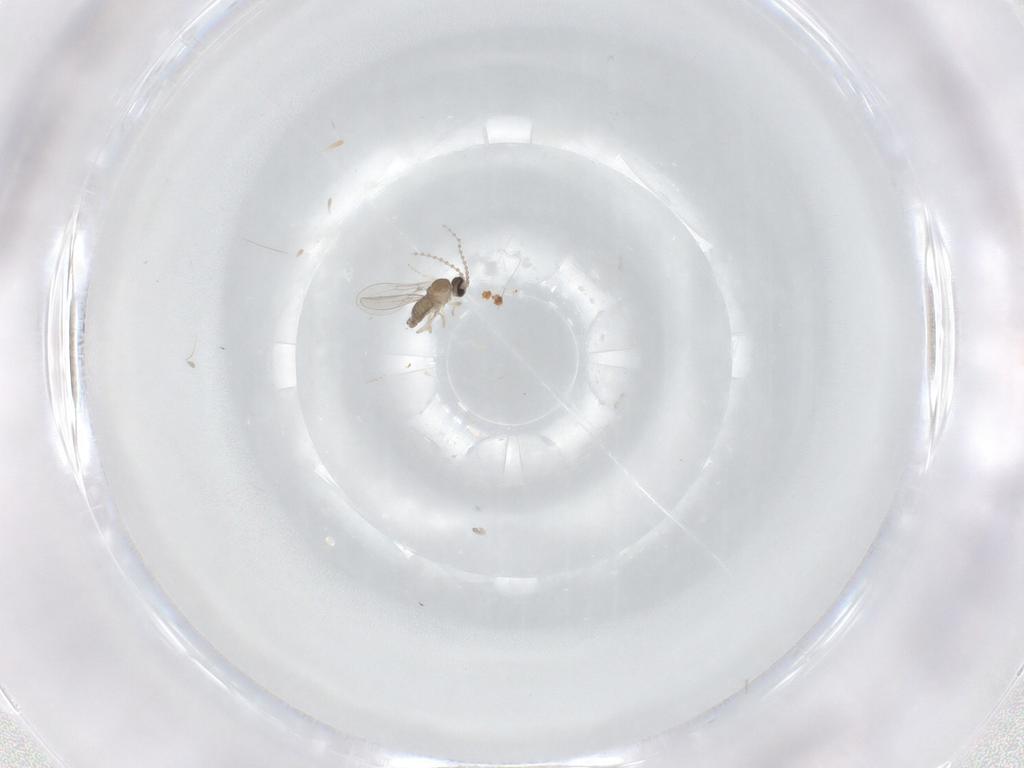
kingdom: Animalia
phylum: Arthropoda
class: Insecta
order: Diptera
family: Cecidomyiidae
